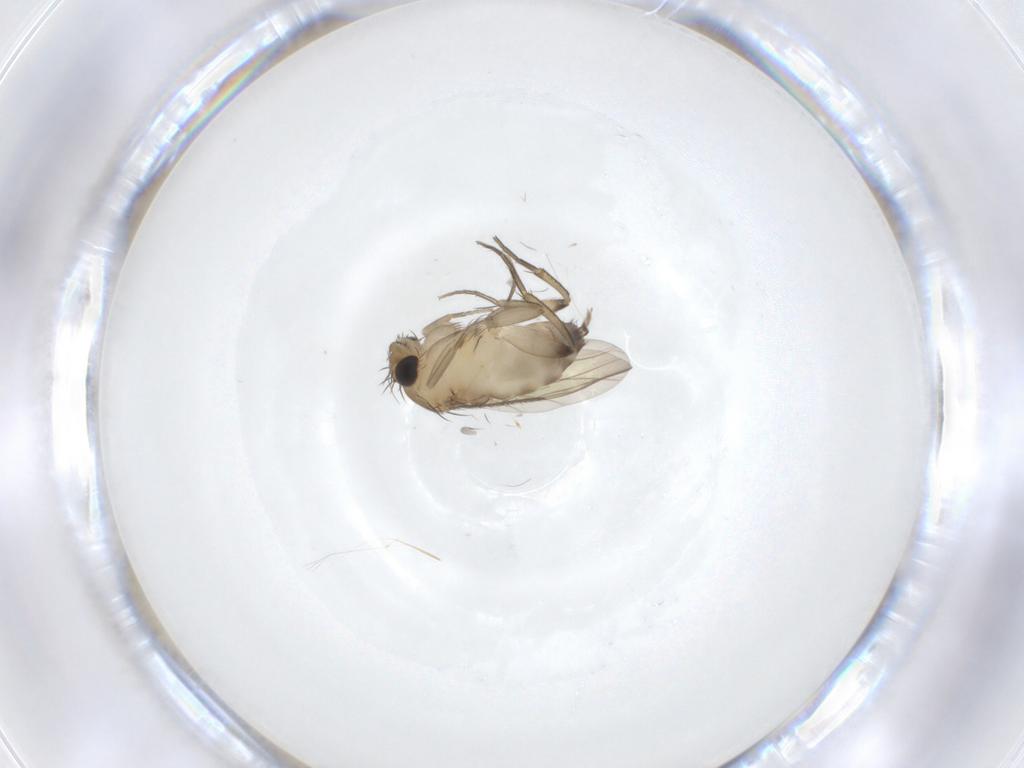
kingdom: Animalia
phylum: Arthropoda
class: Insecta
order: Diptera
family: Phoridae
